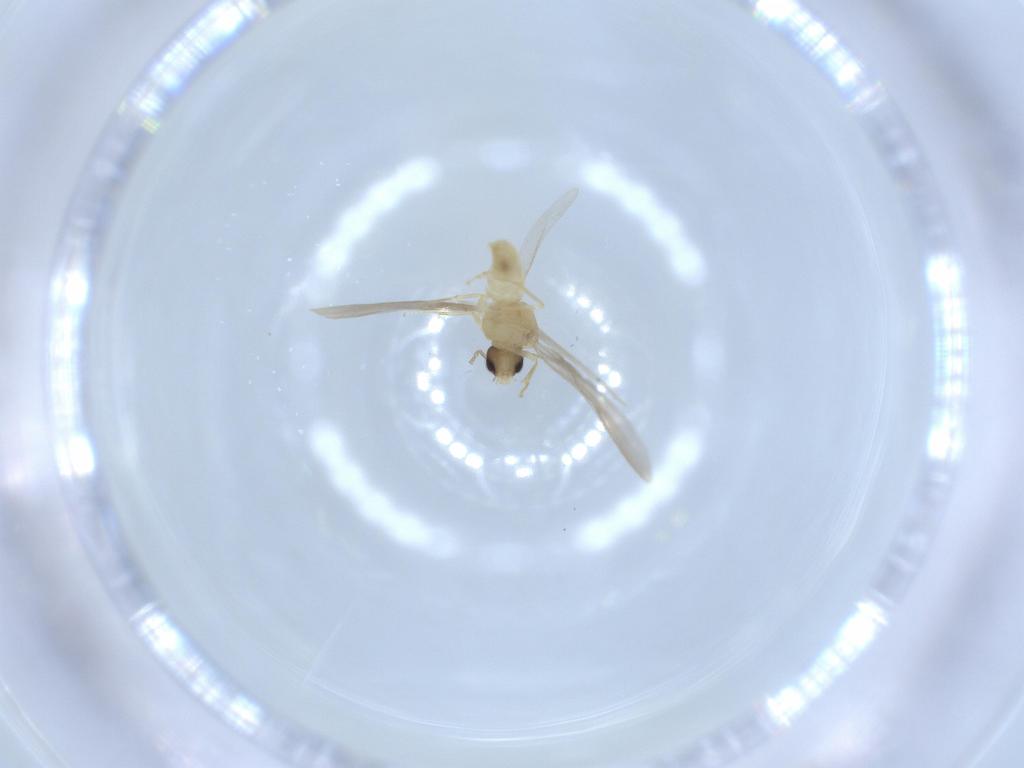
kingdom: Animalia
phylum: Arthropoda
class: Insecta
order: Hymenoptera
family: Formicidae
